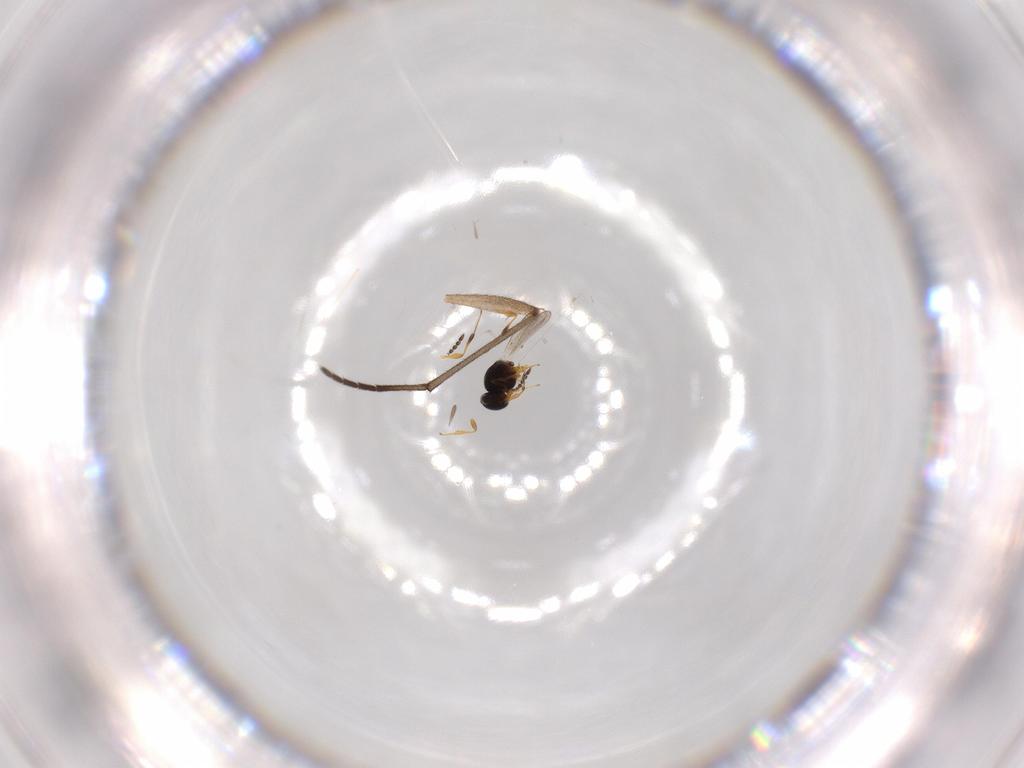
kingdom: Animalia
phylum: Arthropoda
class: Insecta
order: Hymenoptera
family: Platygastridae
